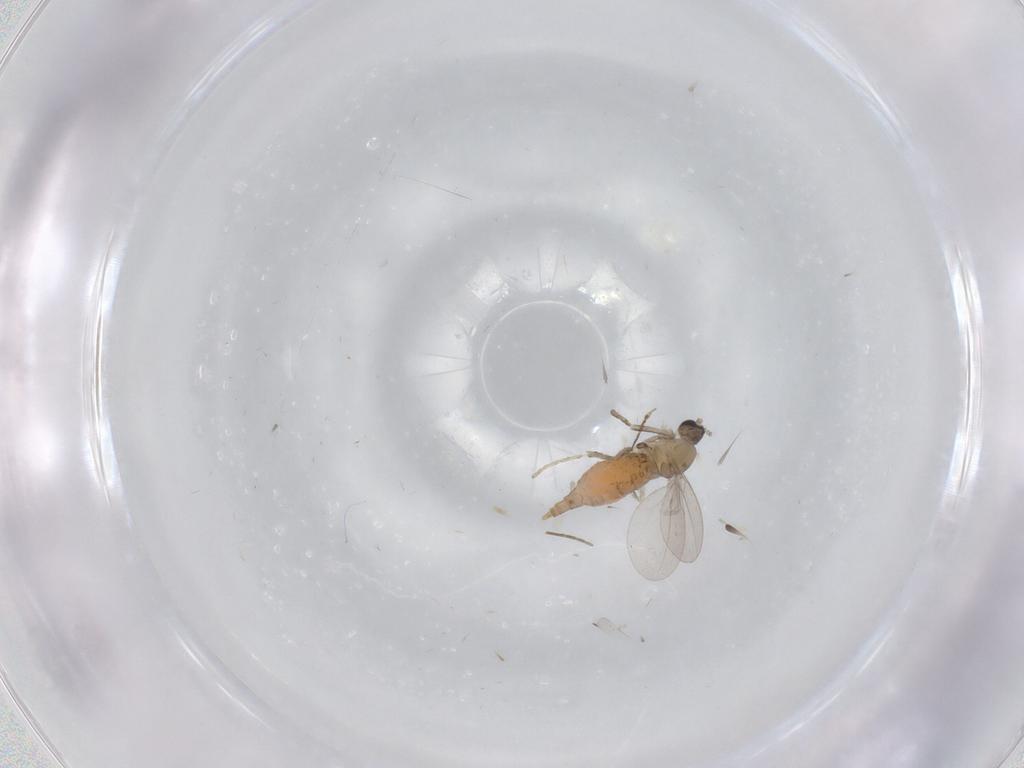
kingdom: Animalia
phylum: Arthropoda
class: Insecta
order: Diptera
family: Cecidomyiidae
